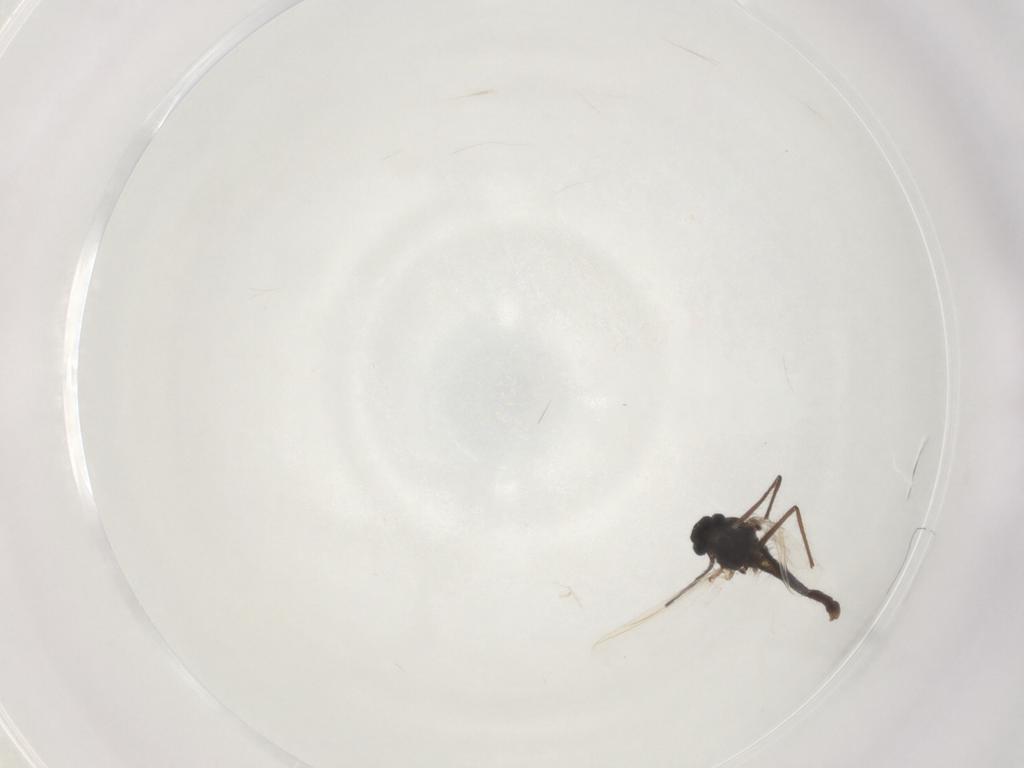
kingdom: Animalia
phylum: Arthropoda
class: Insecta
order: Diptera
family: Chironomidae
